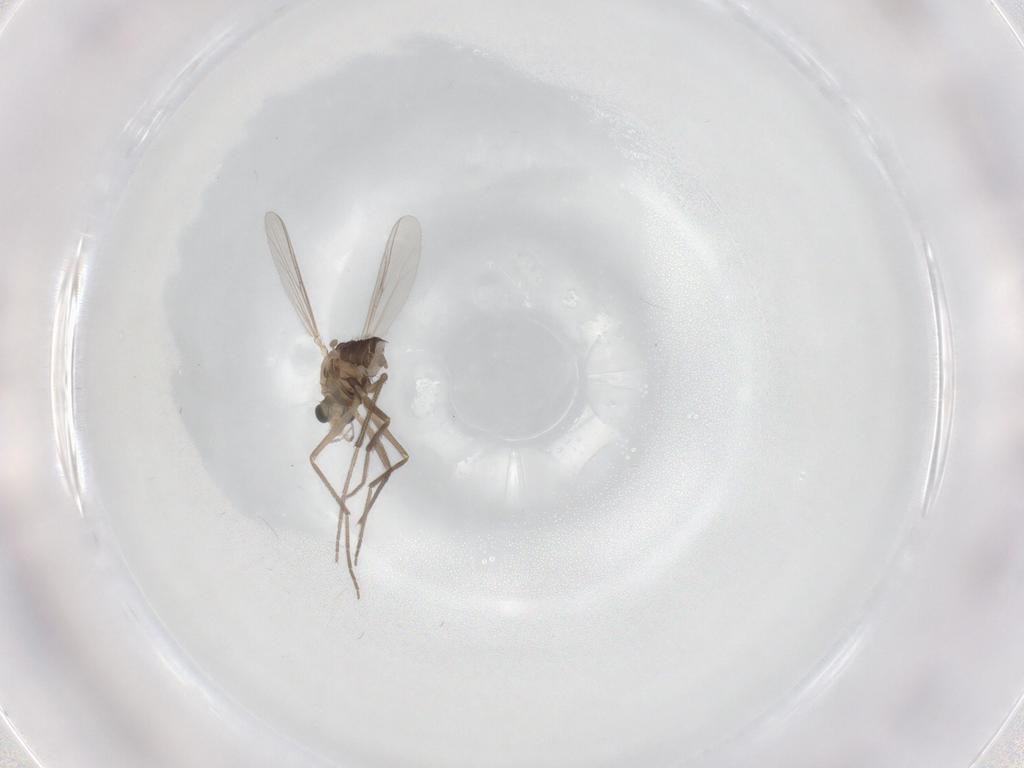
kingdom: Animalia
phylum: Arthropoda
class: Insecta
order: Diptera
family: Chironomidae
